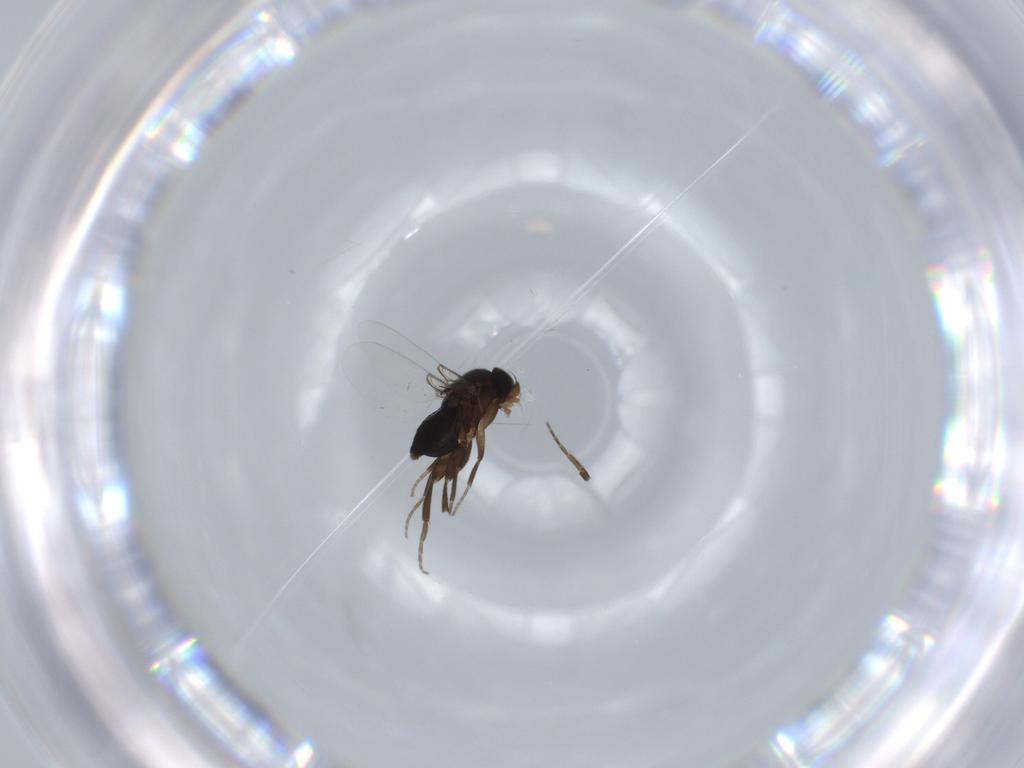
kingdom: Animalia
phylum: Arthropoda
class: Insecta
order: Diptera
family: Phoridae
